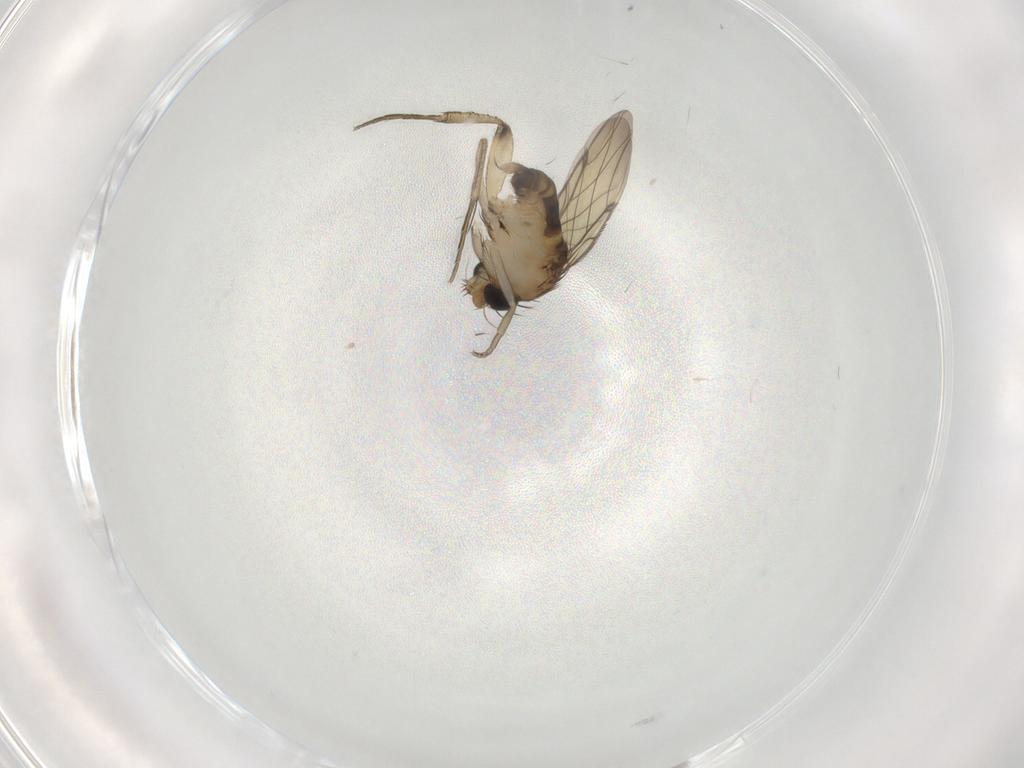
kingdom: Animalia
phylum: Arthropoda
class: Insecta
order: Diptera
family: Phoridae
